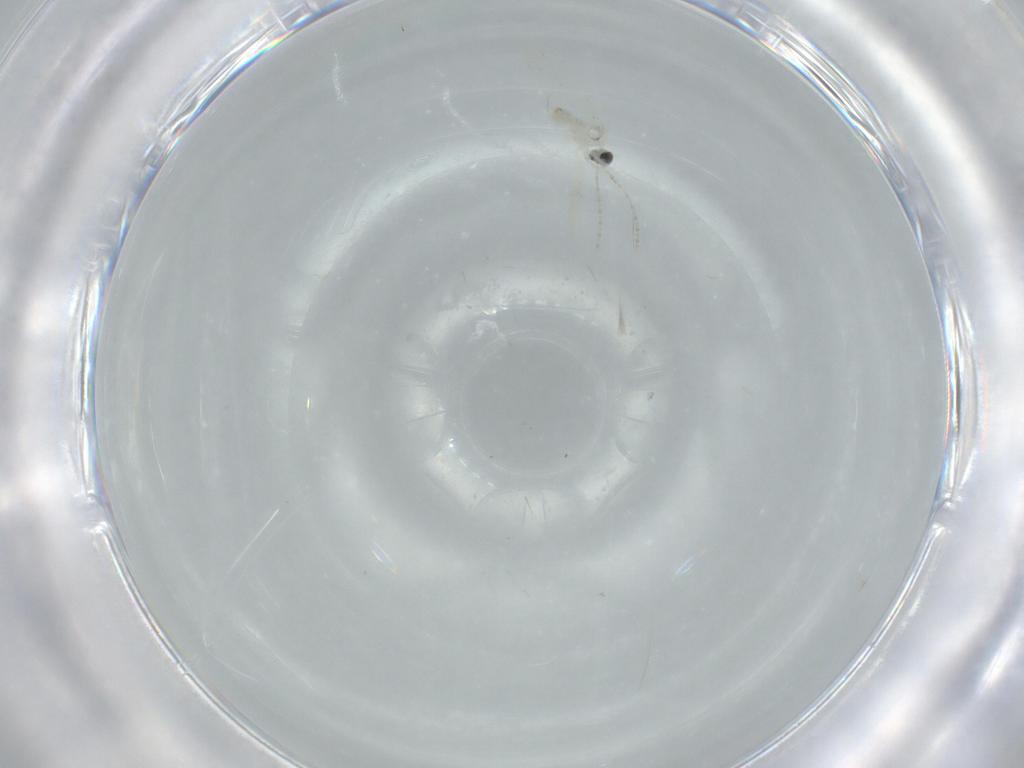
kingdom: Animalia
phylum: Arthropoda
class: Insecta
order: Diptera
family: Cecidomyiidae
